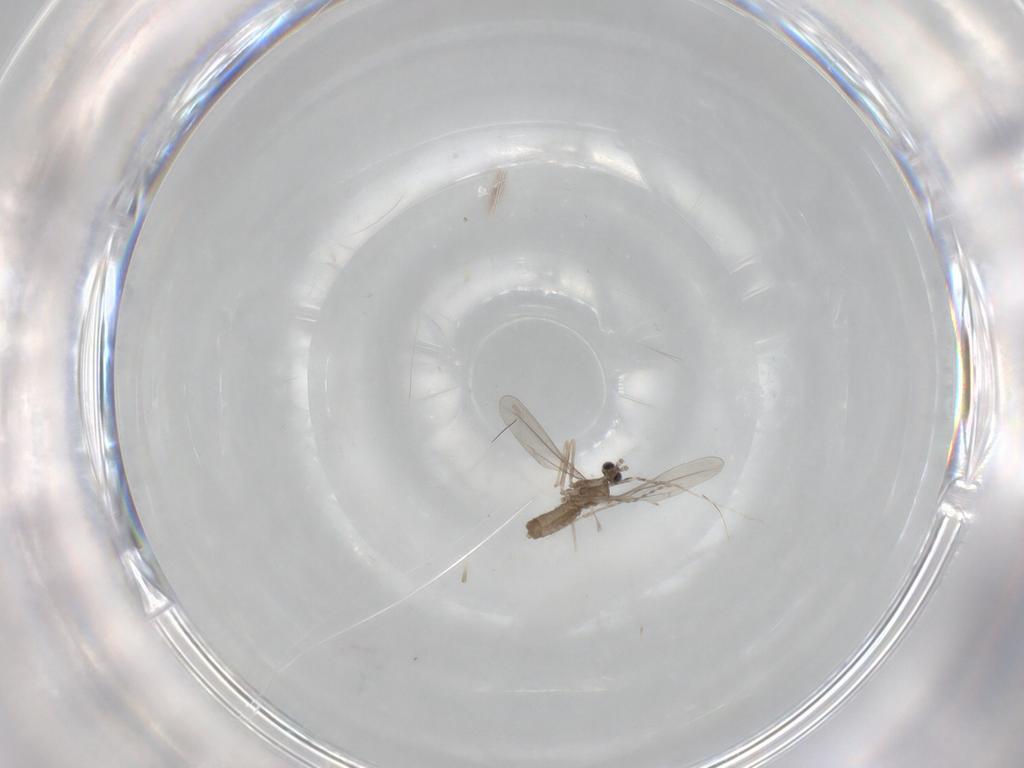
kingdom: Animalia
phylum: Arthropoda
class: Insecta
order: Diptera
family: Cecidomyiidae
